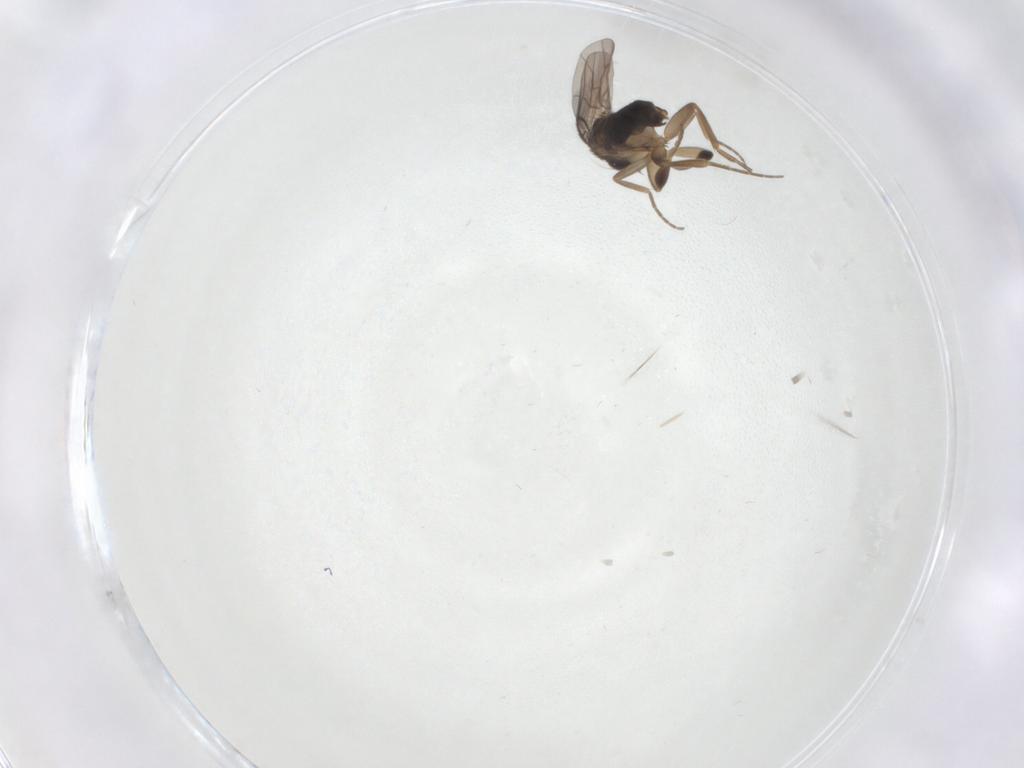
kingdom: Animalia
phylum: Arthropoda
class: Insecta
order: Diptera
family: Phoridae
